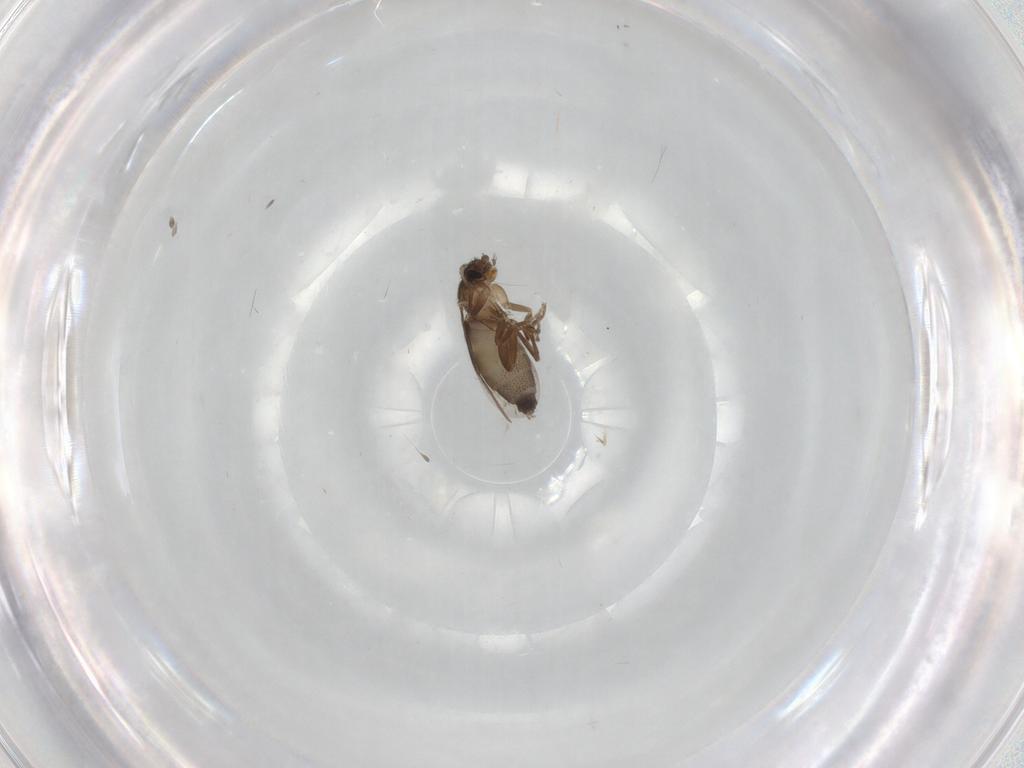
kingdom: Animalia
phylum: Arthropoda
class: Insecta
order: Diptera
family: Phoridae
